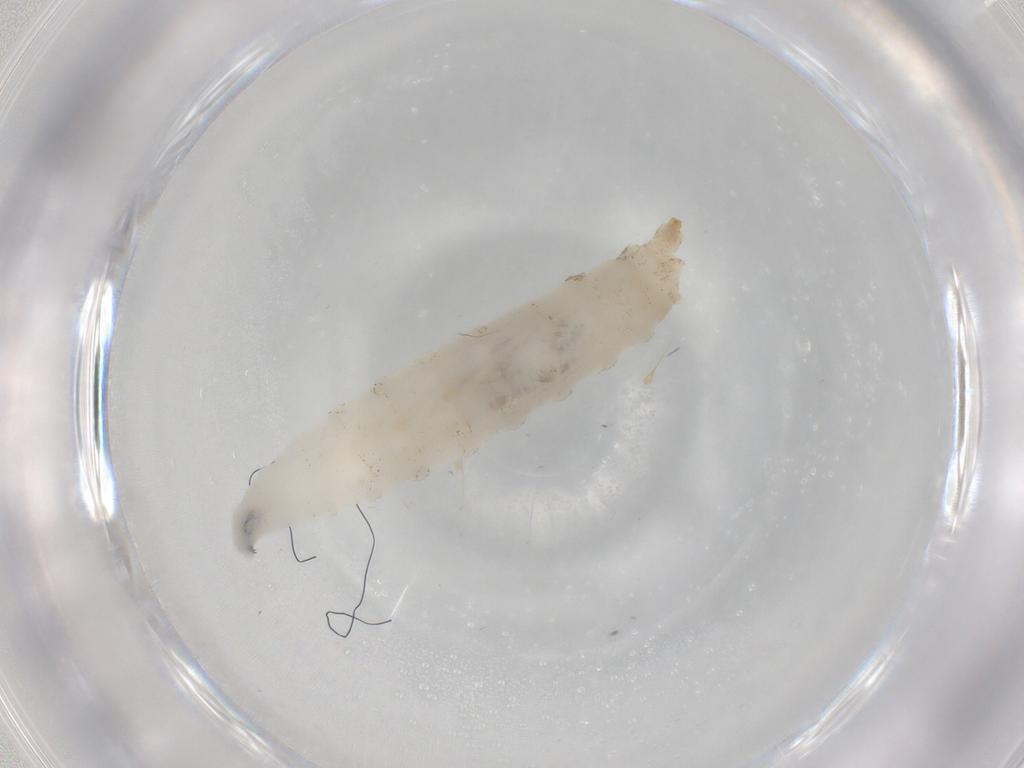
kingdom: Animalia
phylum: Arthropoda
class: Insecta
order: Diptera
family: Drosophilidae
